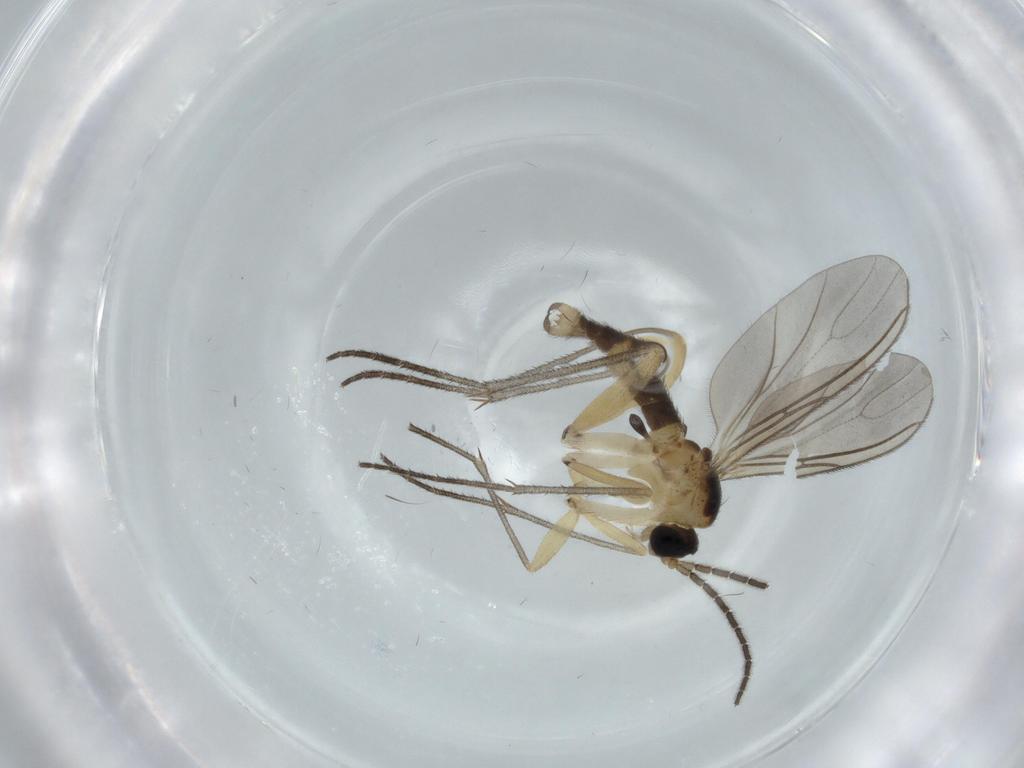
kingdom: Animalia
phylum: Arthropoda
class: Insecta
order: Diptera
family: Sciaridae
